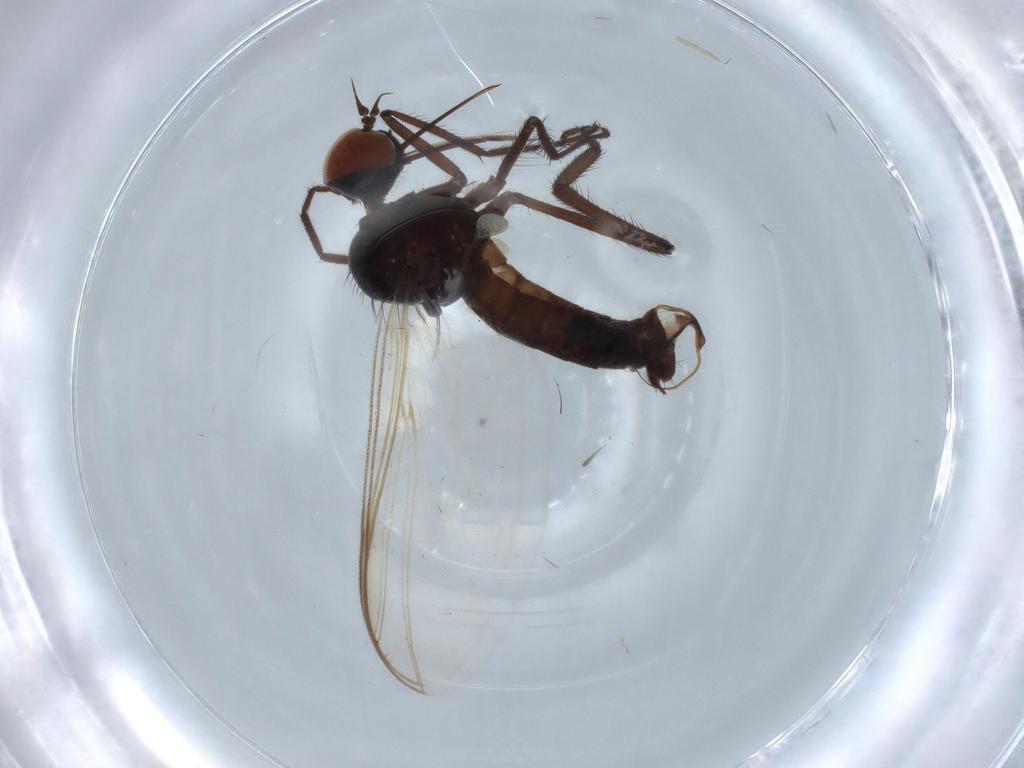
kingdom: Animalia
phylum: Arthropoda
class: Insecta
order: Diptera
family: Empididae
